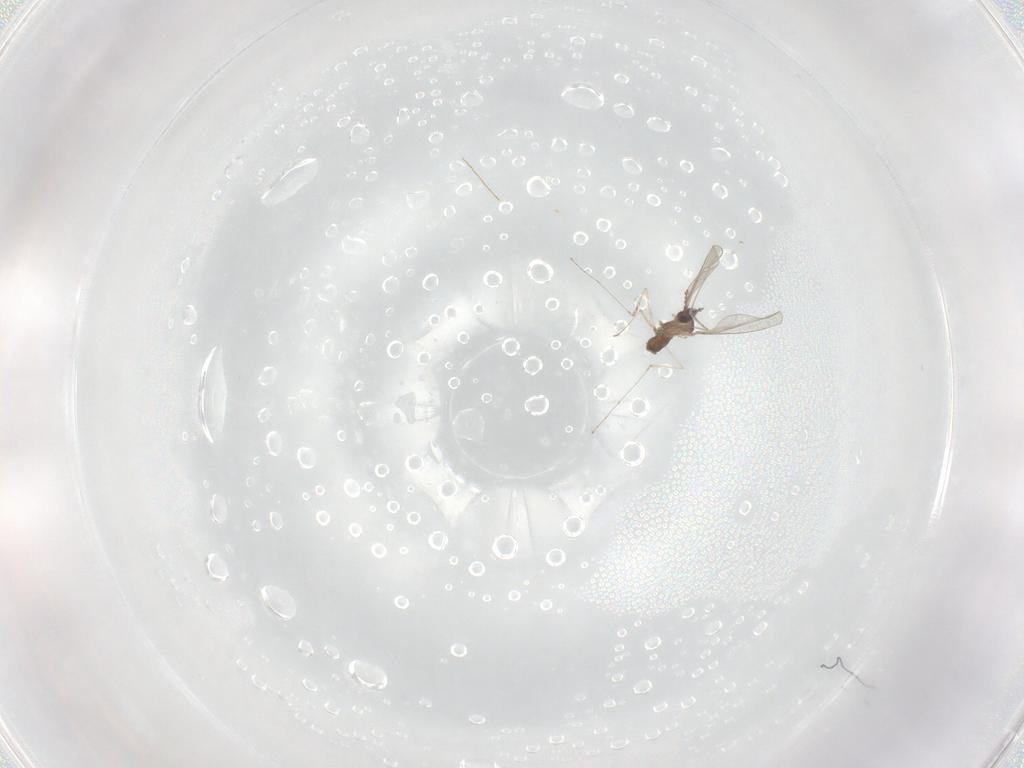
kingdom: Animalia
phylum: Arthropoda
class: Insecta
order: Diptera
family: Cecidomyiidae
